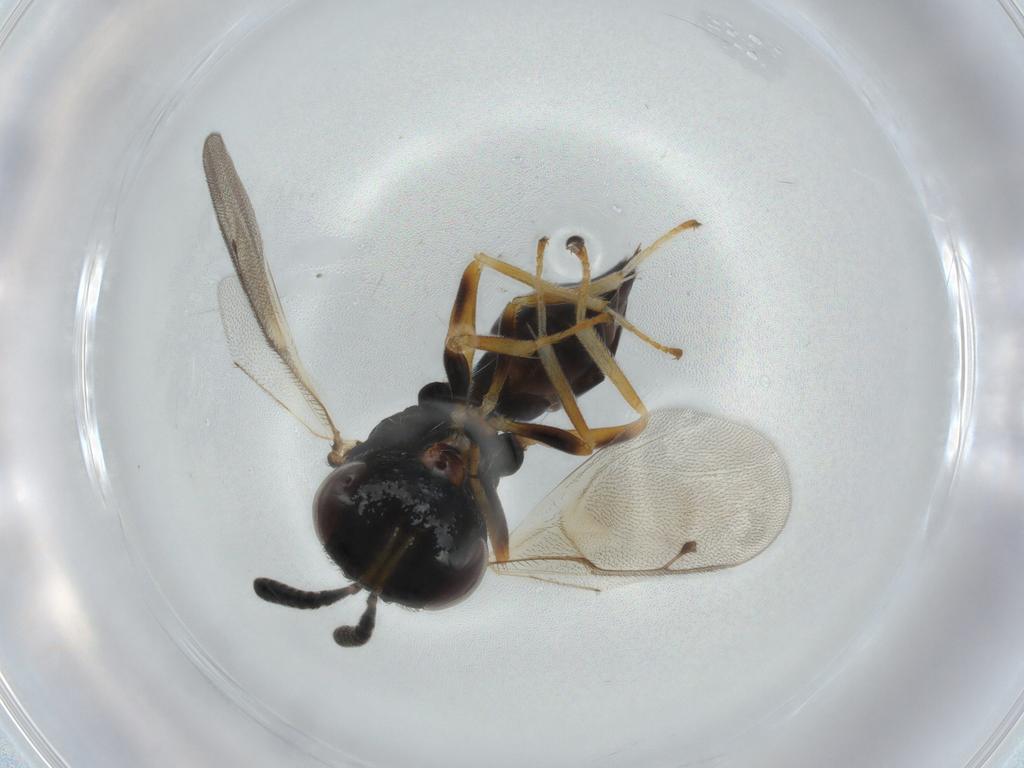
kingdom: Animalia
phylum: Arthropoda
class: Insecta
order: Hymenoptera
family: Pteromalidae
